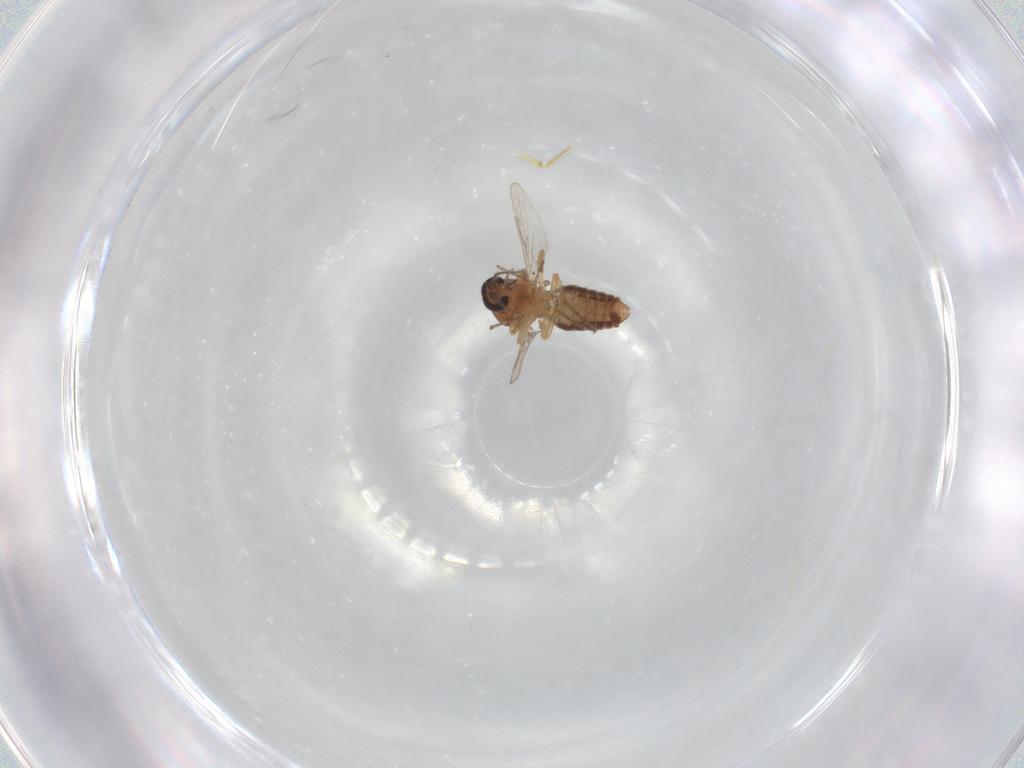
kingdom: Animalia
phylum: Arthropoda
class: Insecta
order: Diptera
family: Ceratopogonidae
